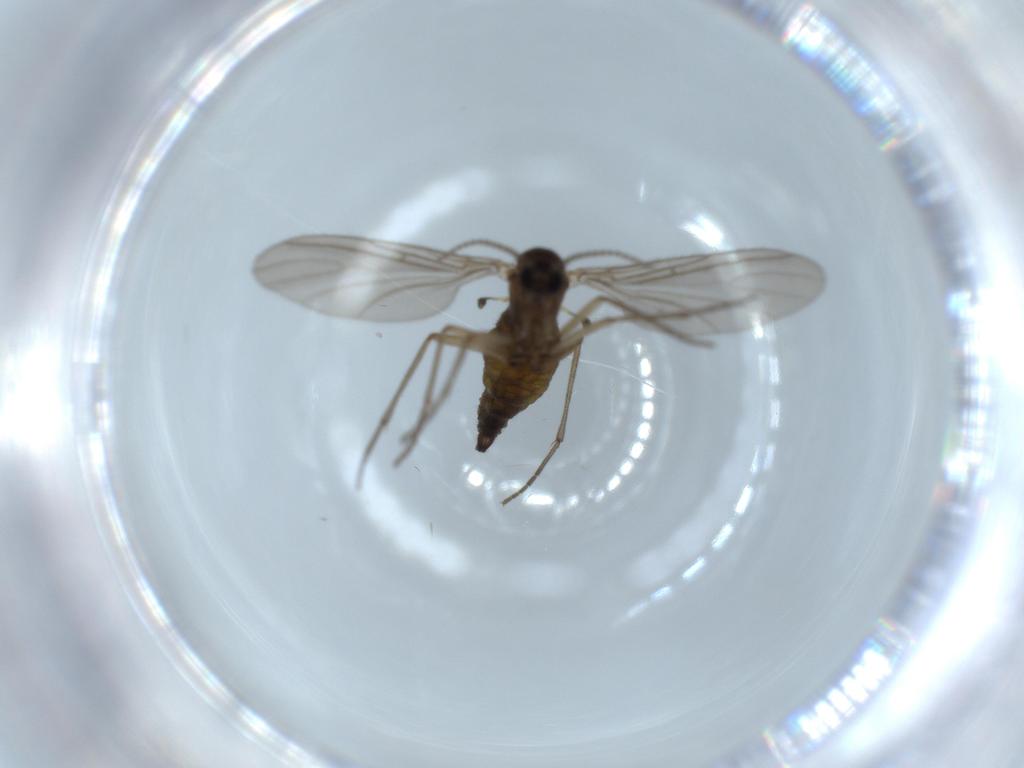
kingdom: Animalia
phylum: Arthropoda
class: Insecta
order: Diptera
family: Sciaridae
